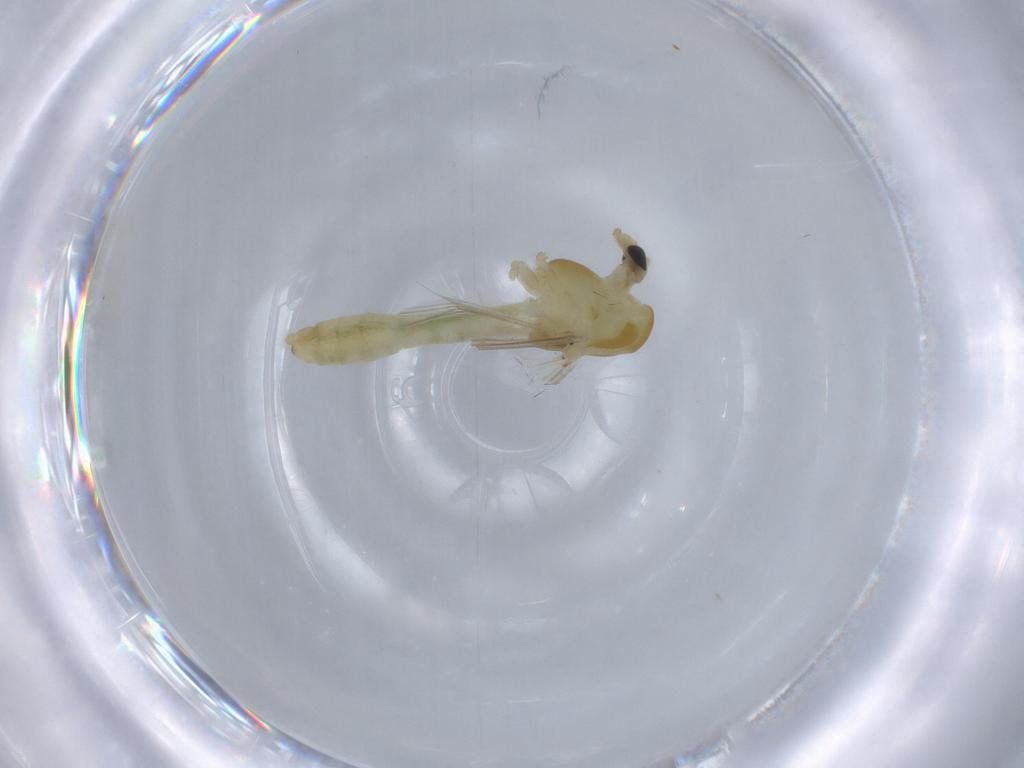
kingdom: Animalia
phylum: Arthropoda
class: Insecta
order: Diptera
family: Chironomidae
